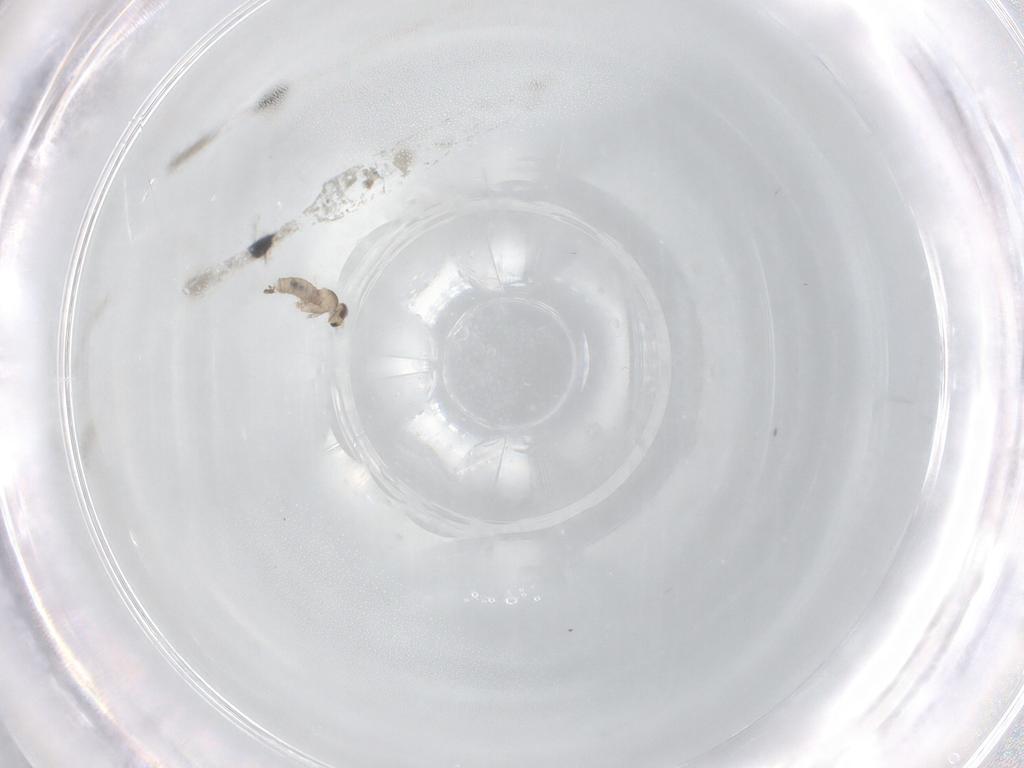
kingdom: Animalia
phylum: Arthropoda
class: Insecta
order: Diptera
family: Cecidomyiidae
